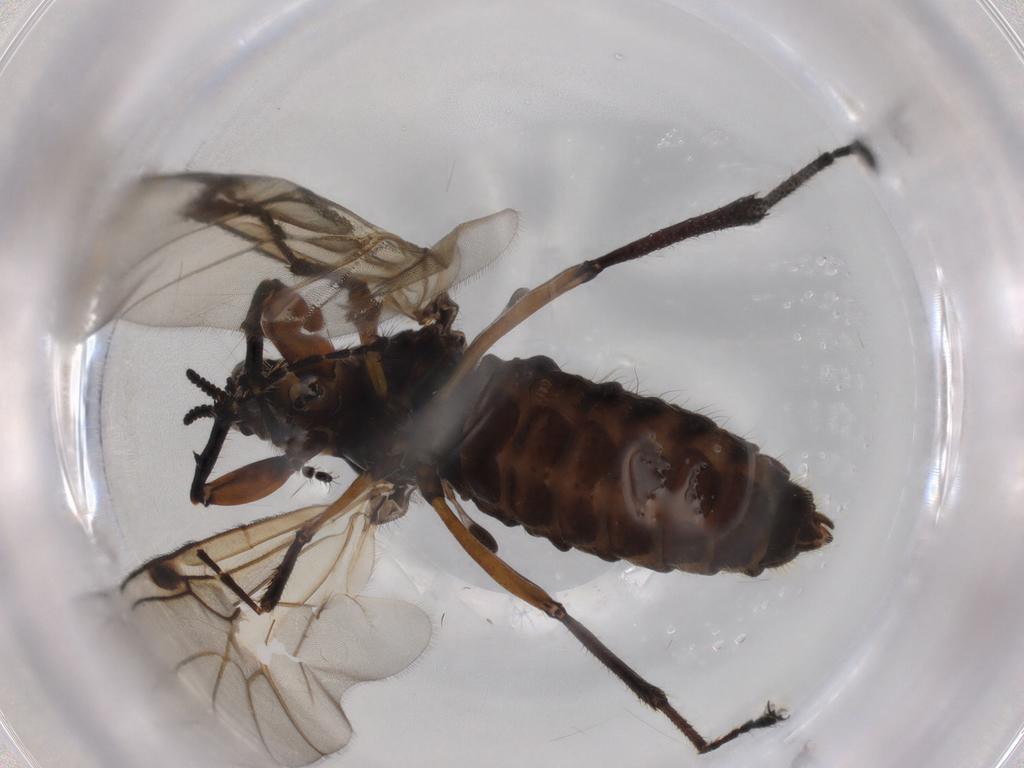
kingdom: Animalia
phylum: Arthropoda
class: Insecta
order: Diptera
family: Bibionidae
